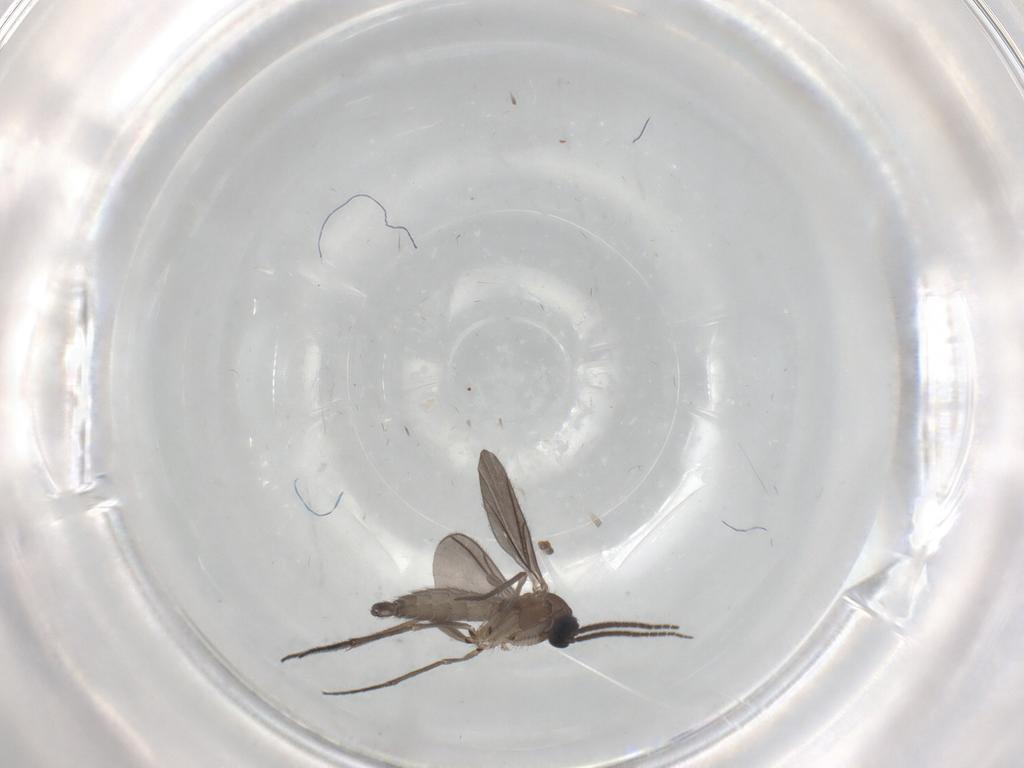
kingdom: Animalia
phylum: Arthropoda
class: Insecta
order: Diptera
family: Sciaridae
